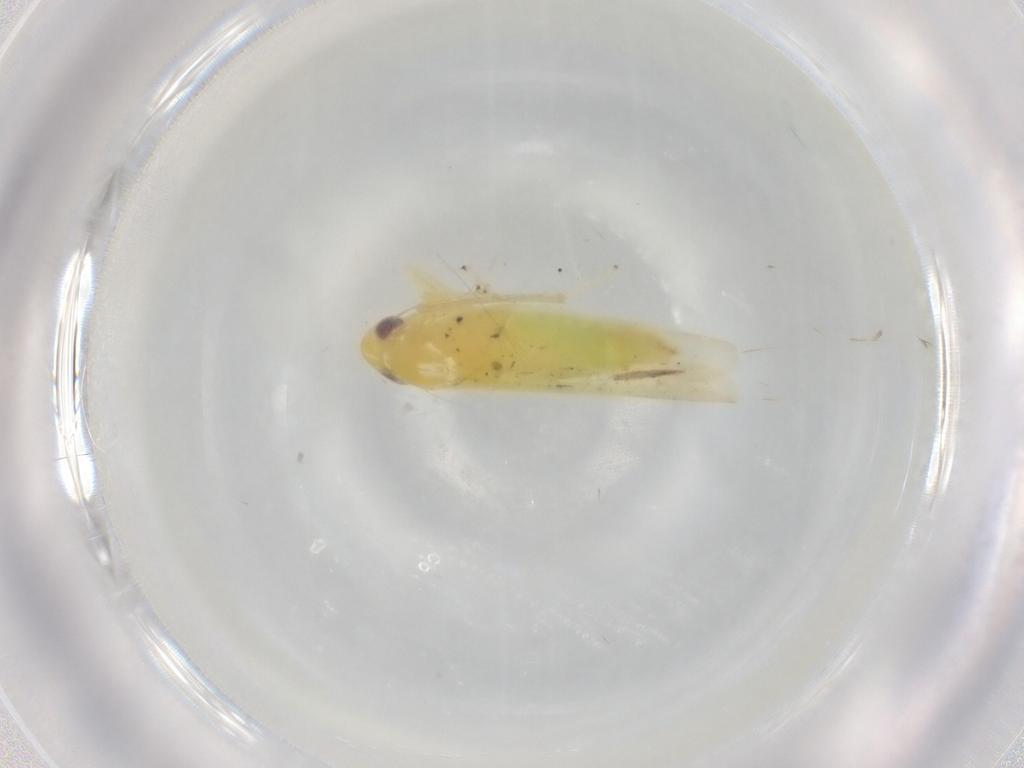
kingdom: Animalia
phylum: Arthropoda
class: Insecta
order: Hemiptera
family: Cicadellidae
